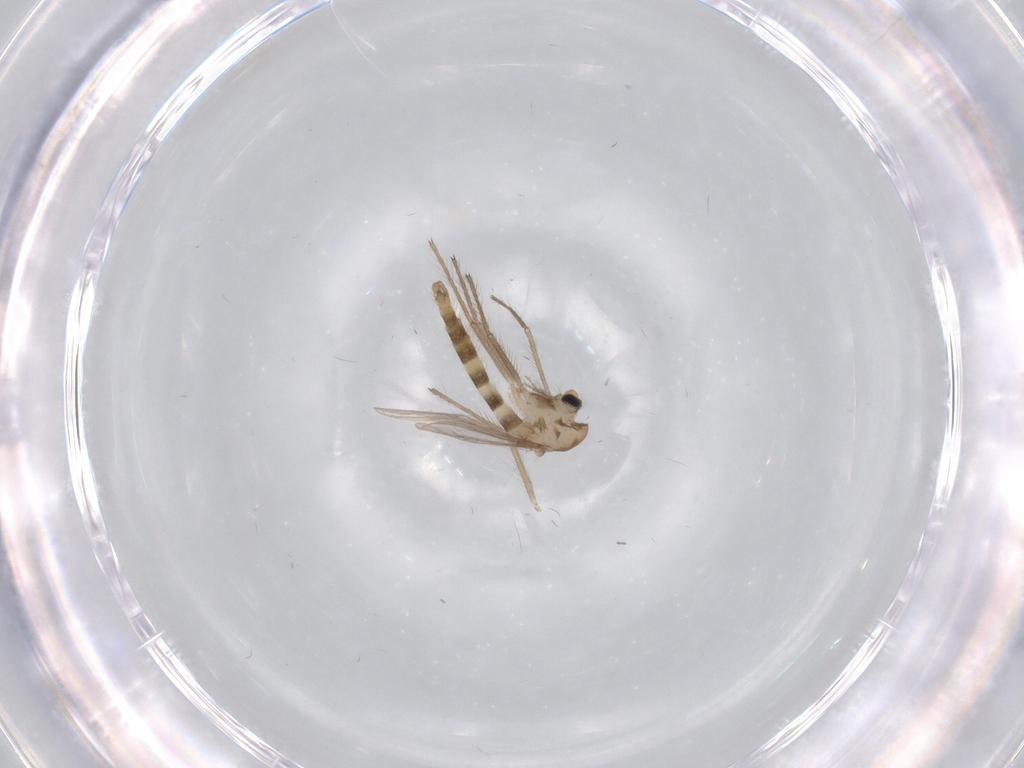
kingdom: Animalia
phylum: Arthropoda
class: Insecta
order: Diptera
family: Chironomidae
